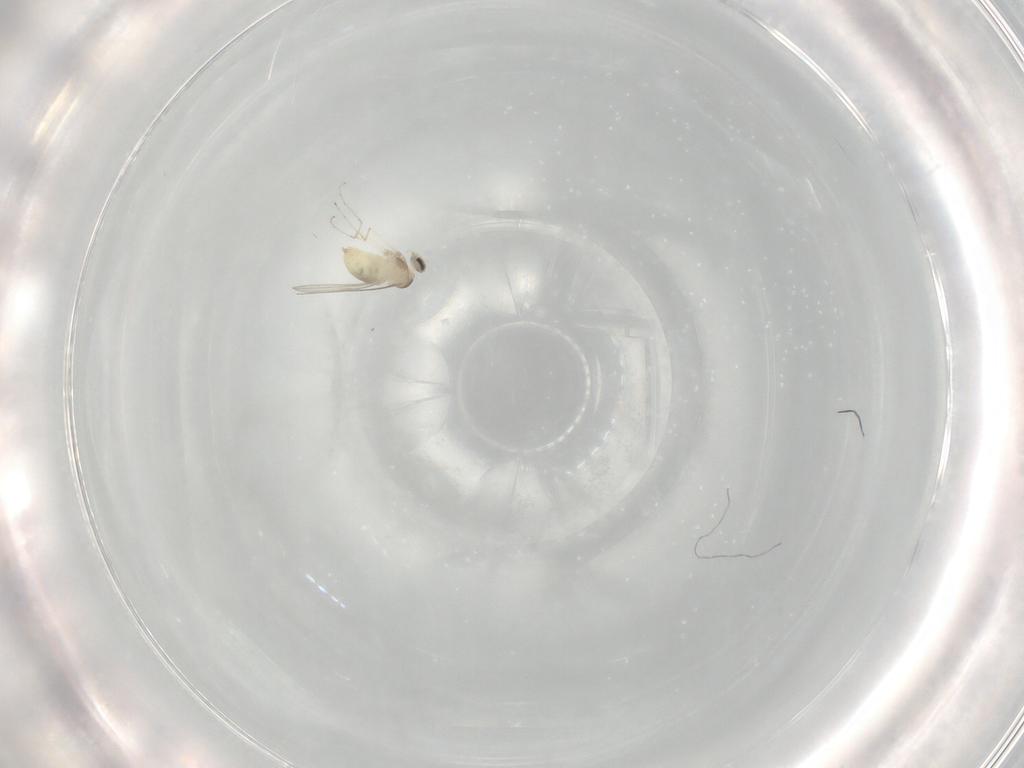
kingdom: Animalia
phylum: Arthropoda
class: Insecta
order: Diptera
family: Cecidomyiidae
